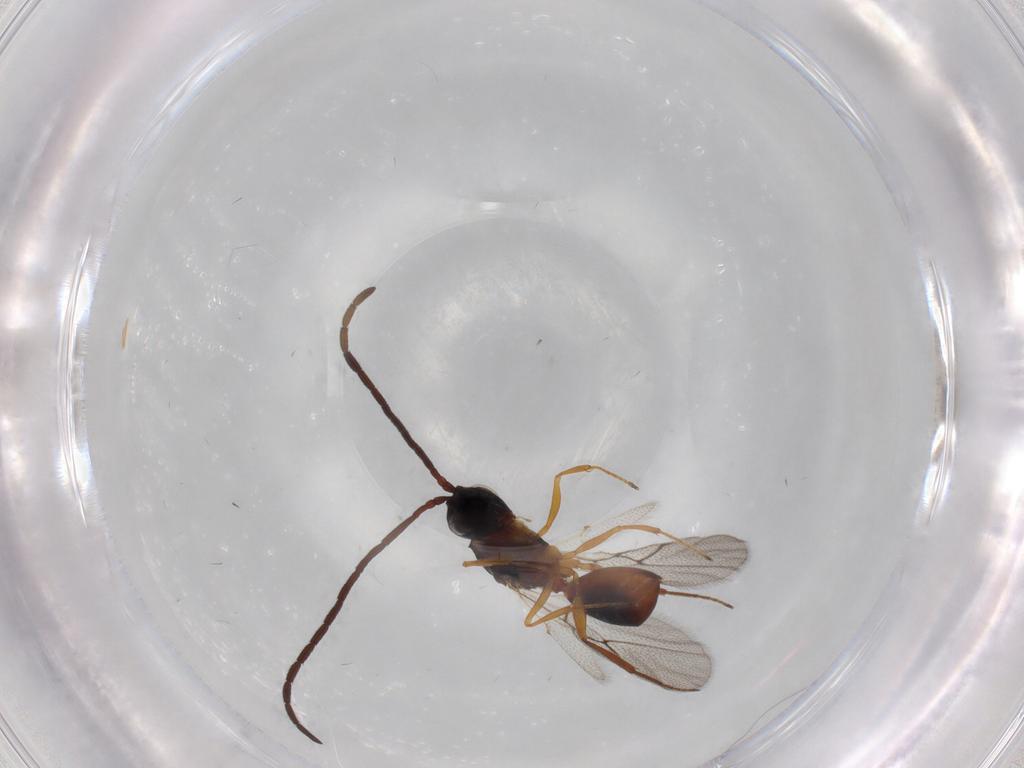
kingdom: Animalia
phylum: Arthropoda
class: Insecta
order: Hymenoptera
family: Figitidae
